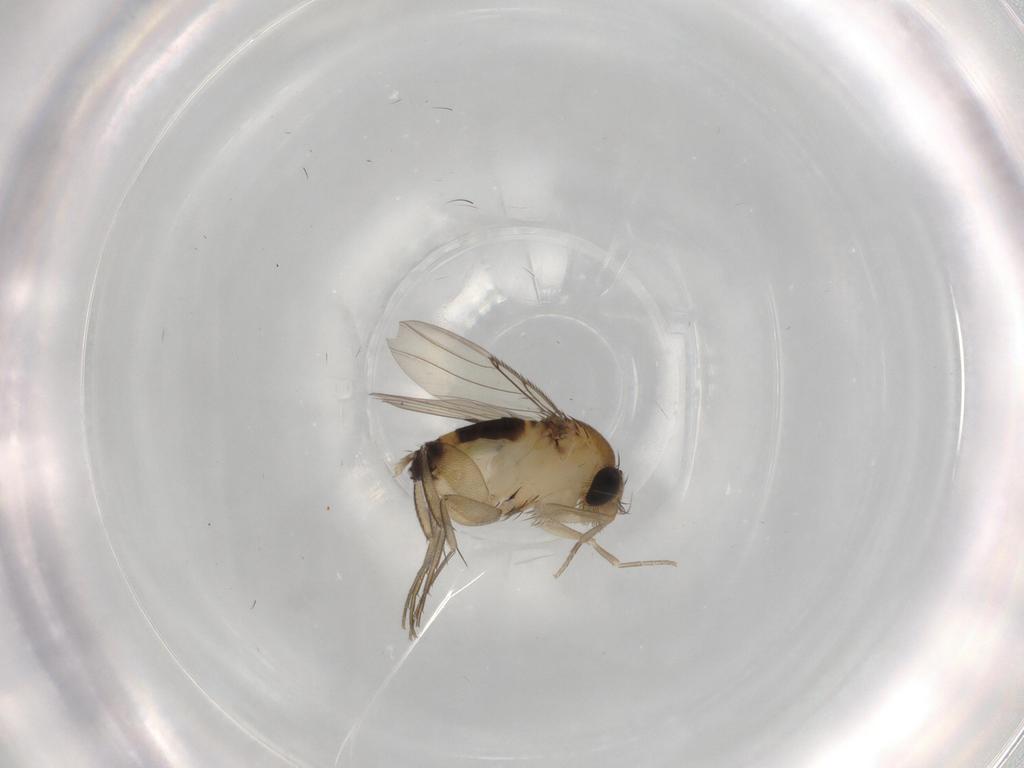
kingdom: Animalia
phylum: Arthropoda
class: Insecta
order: Diptera
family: Phoridae
